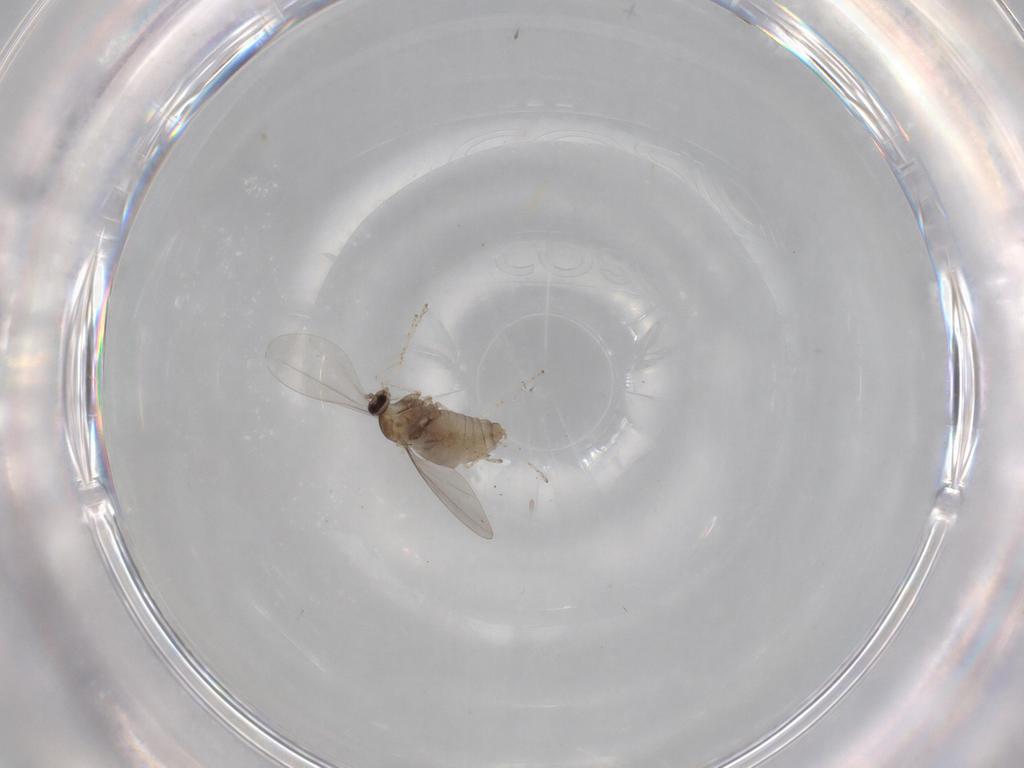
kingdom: Animalia
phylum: Arthropoda
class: Insecta
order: Diptera
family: Cecidomyiidae
